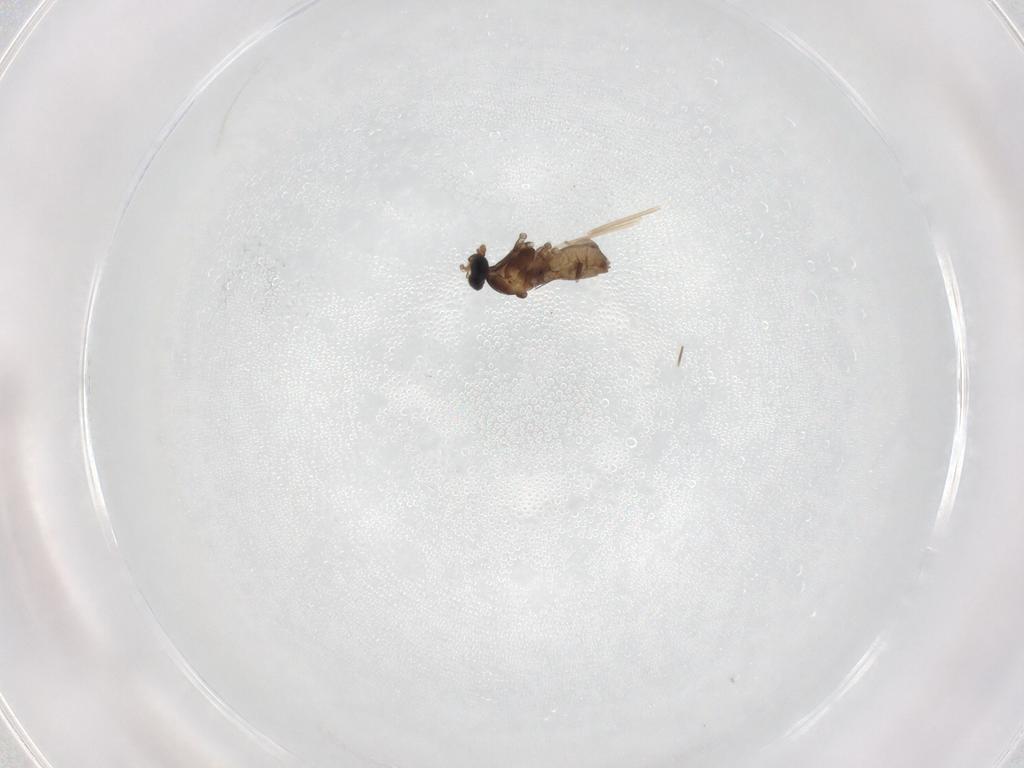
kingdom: Animalia
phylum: Arthropoda
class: Insecta
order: Diptera
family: Cecidomyiidae
